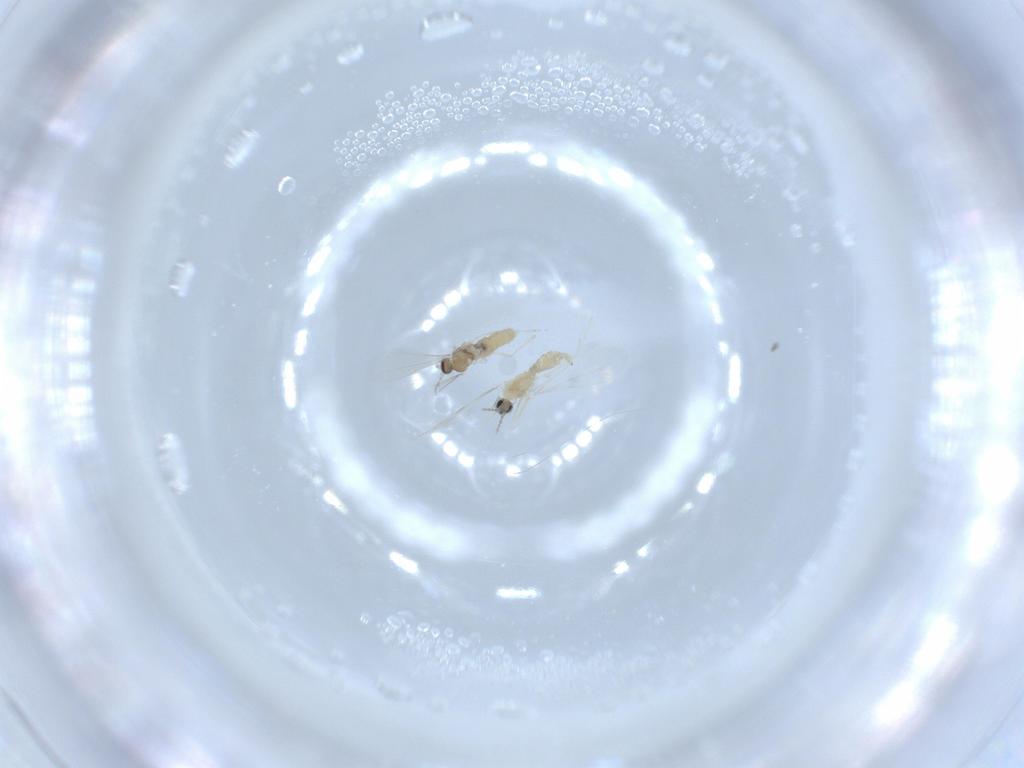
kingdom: Animalia
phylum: Arthropoda
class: Insecta
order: Diptera
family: Cecidomyiidae
